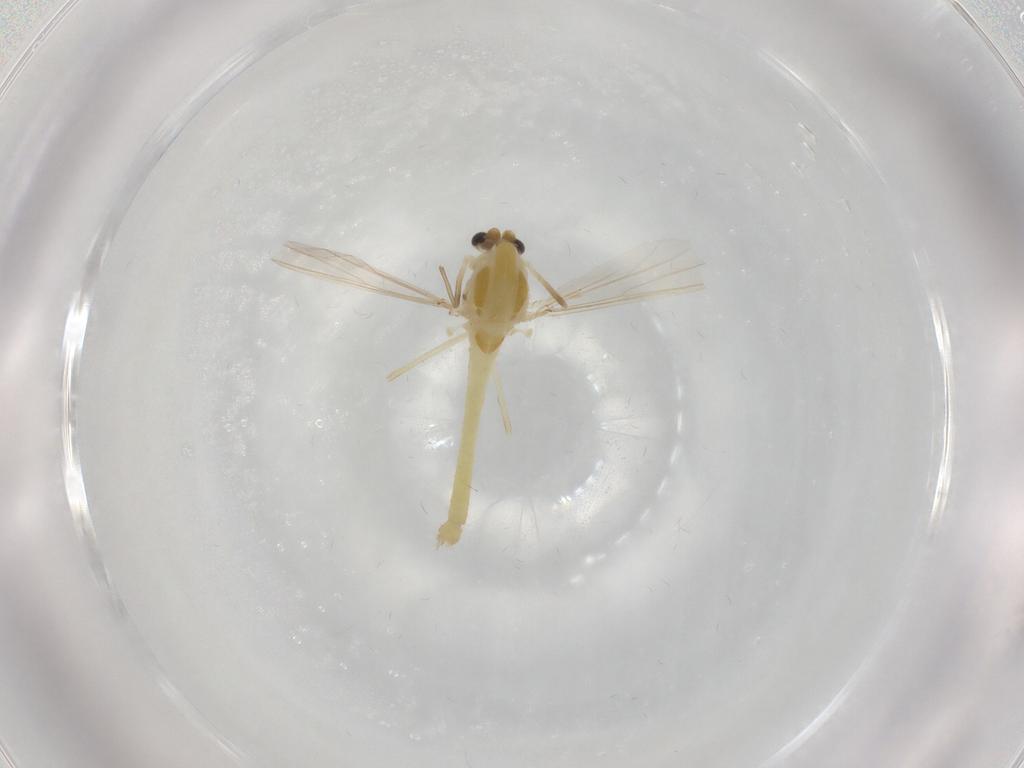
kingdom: Animalia
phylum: Arthropoda
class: Insecta
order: Diptera
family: Chironomidae
